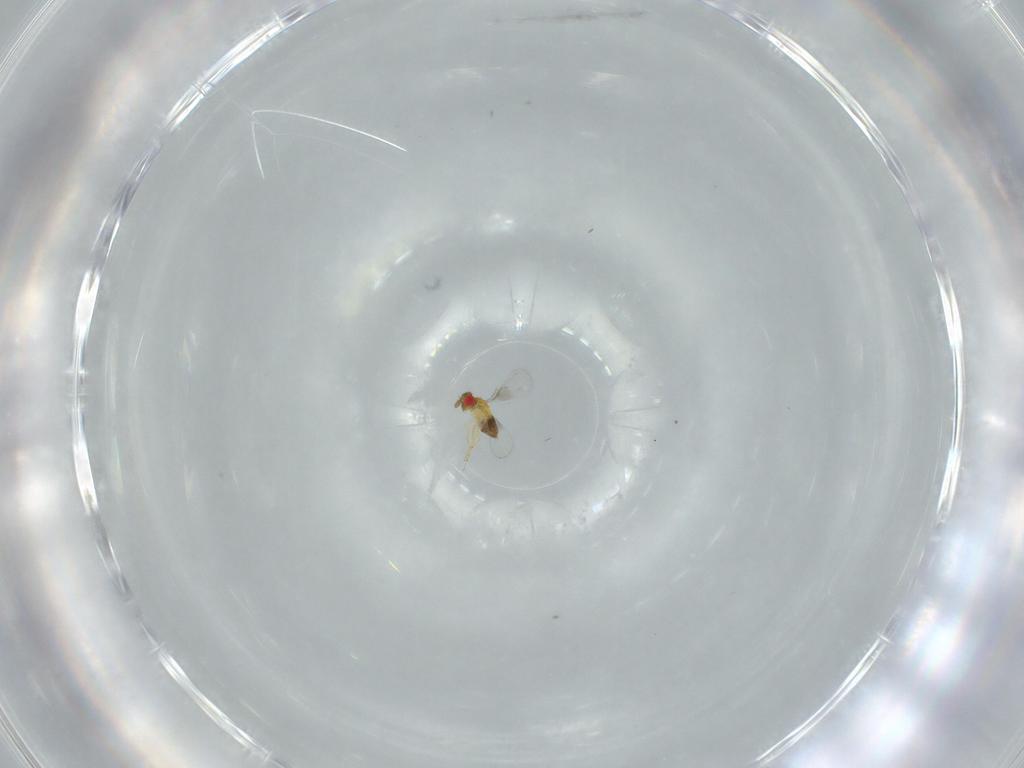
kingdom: Animalia
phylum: Arthropoda
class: Insecta
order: Hymenoptera
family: Trichogrammatidae
